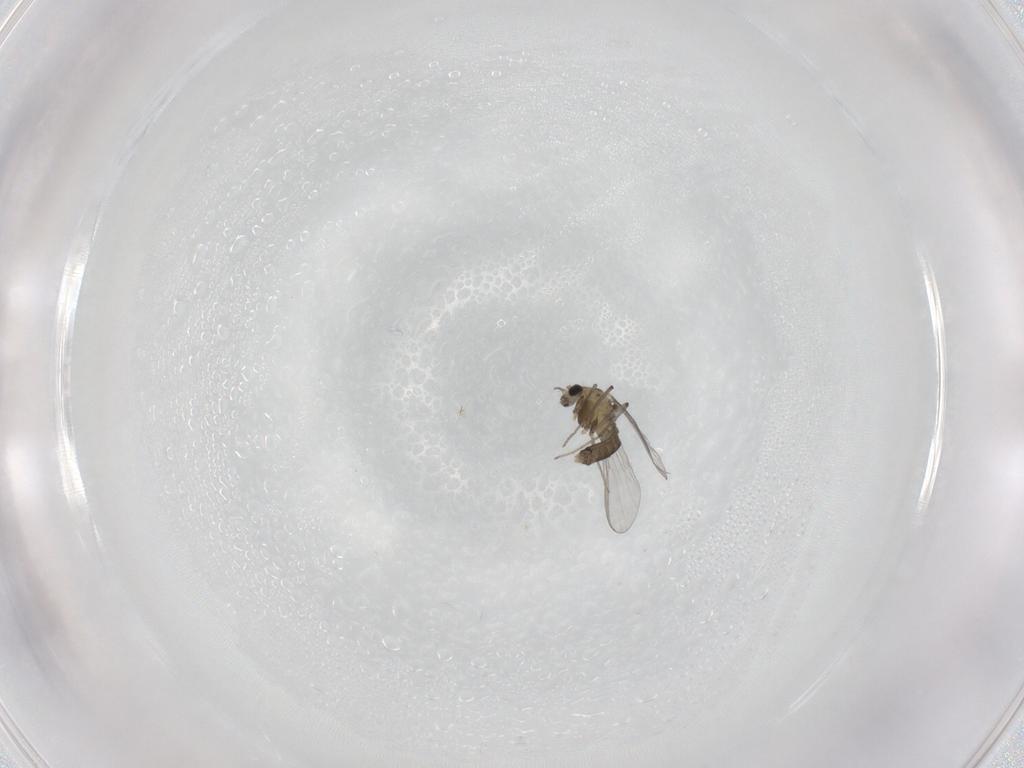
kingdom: Animalia
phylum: Arthropoda
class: Insecta
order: Diptera
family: Chironomidae
